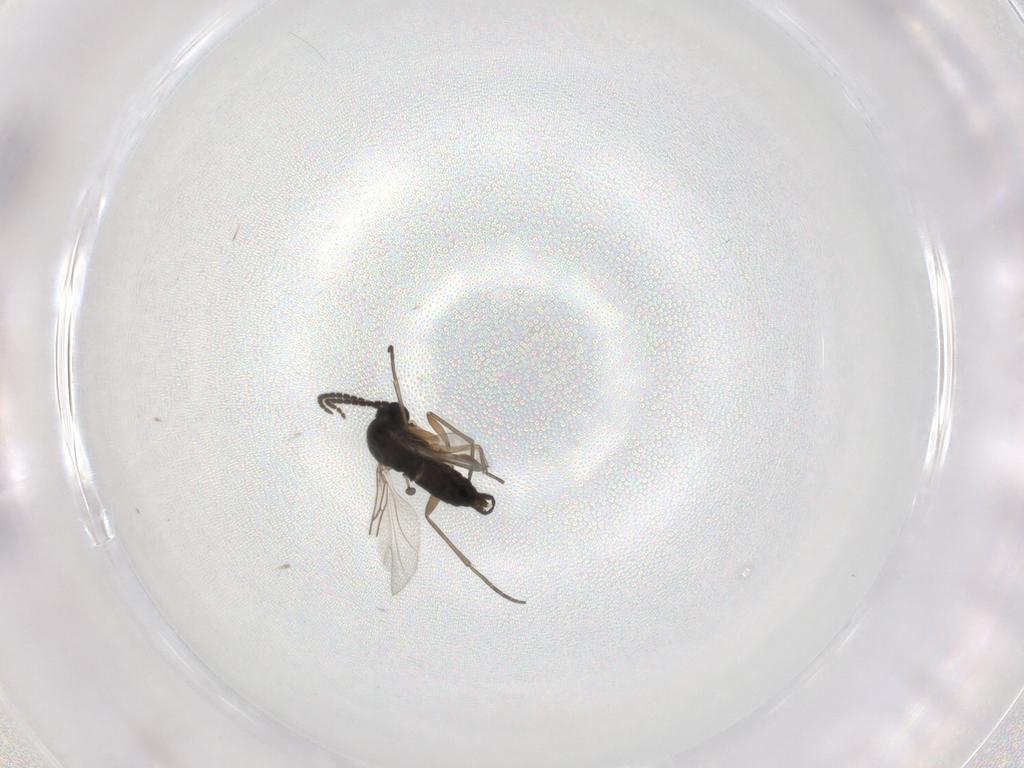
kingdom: Animalia
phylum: Arthropoda
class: Insecta
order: Diptera
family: Sciaridae
